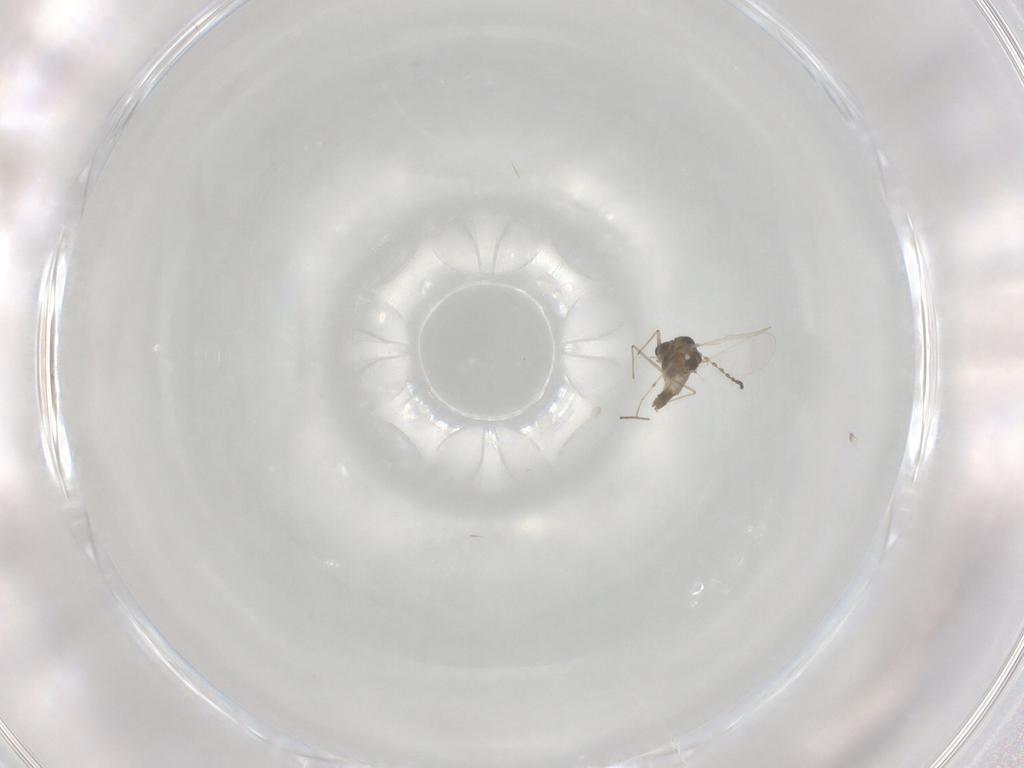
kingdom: Animalia
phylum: Arthropoda
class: Insecta
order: Diptera
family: Chironomidae
